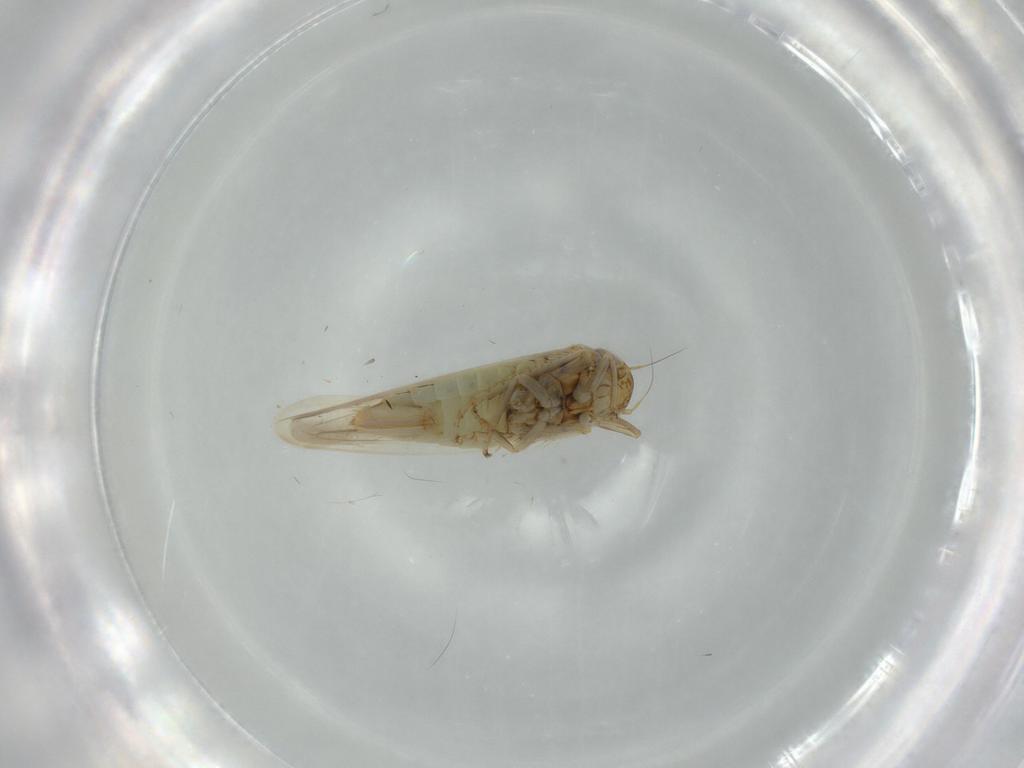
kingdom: Animalia
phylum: Arthropoda
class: Insecta
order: Hemiptera
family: Cicadellidae
